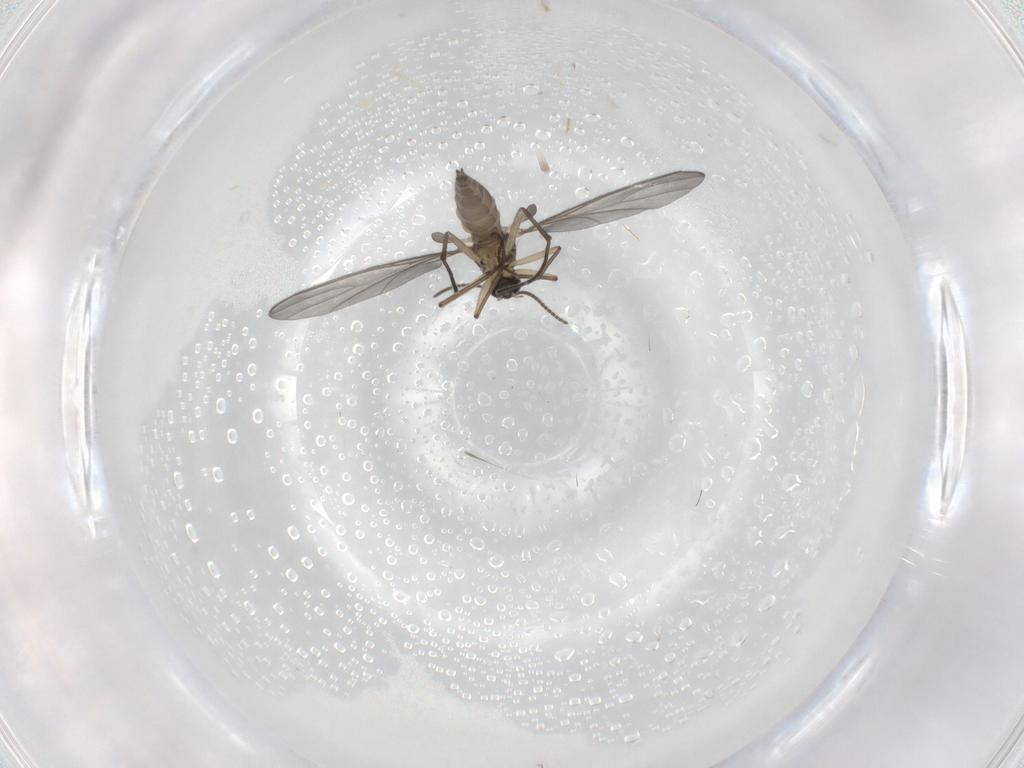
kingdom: Animalia
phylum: Arthropoda
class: Insecta
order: Diptera
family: Sciaridae
